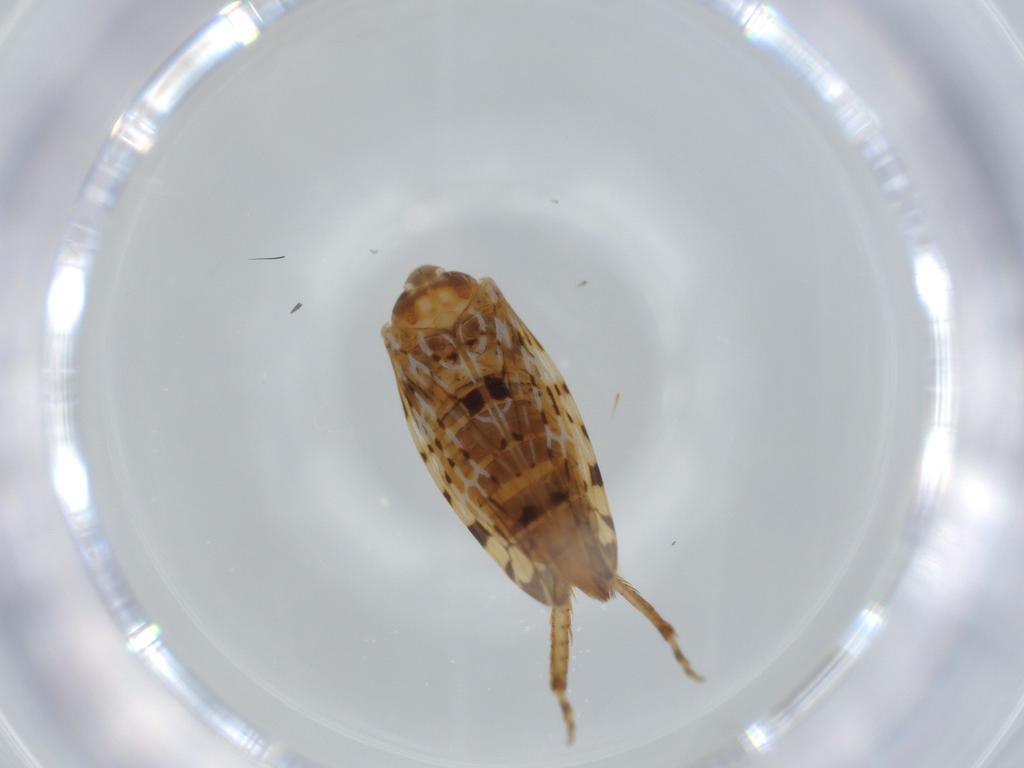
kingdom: Animalia
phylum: Arthropoda
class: Insecta
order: Hemiptera
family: Cicadellidae
